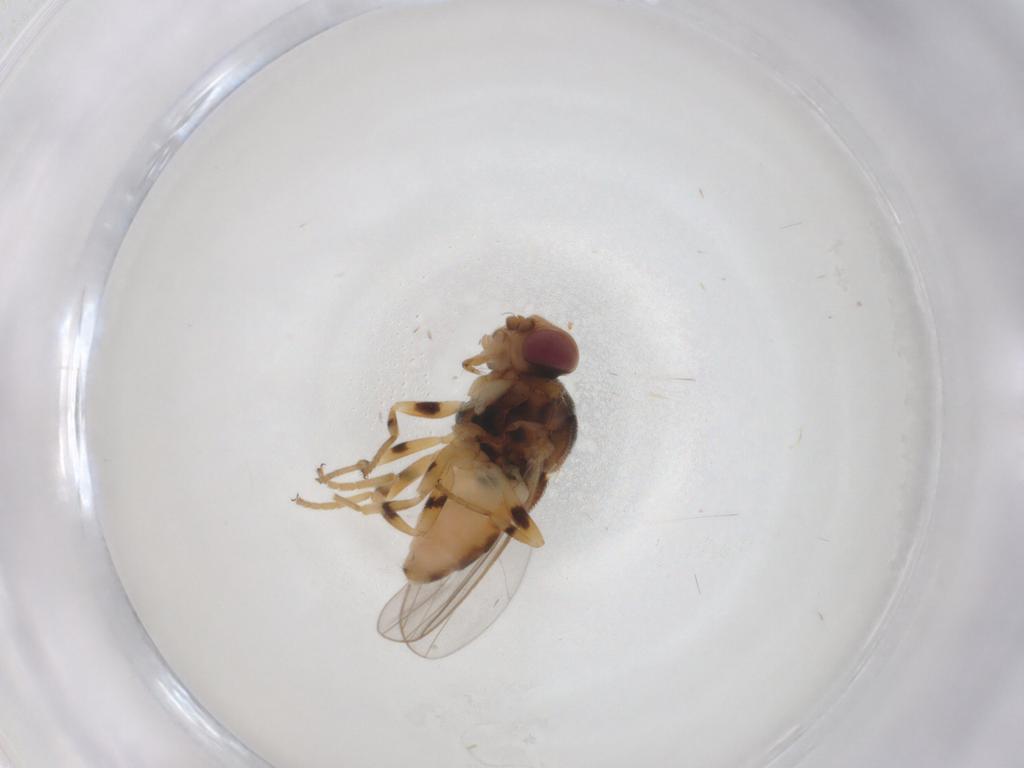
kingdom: Animalia
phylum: Arthropoda
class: Insecta
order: Diptera
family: Chloropidae
